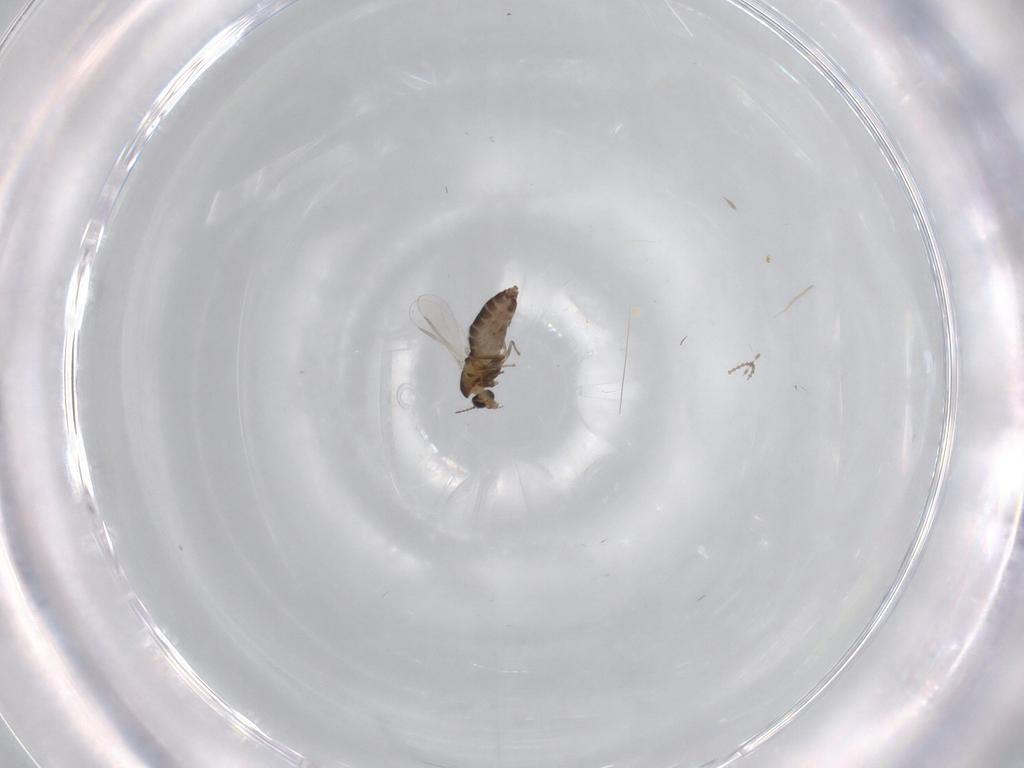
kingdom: Animalia
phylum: Arthropoda
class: Insecta
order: Diptera
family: Chironomidae
